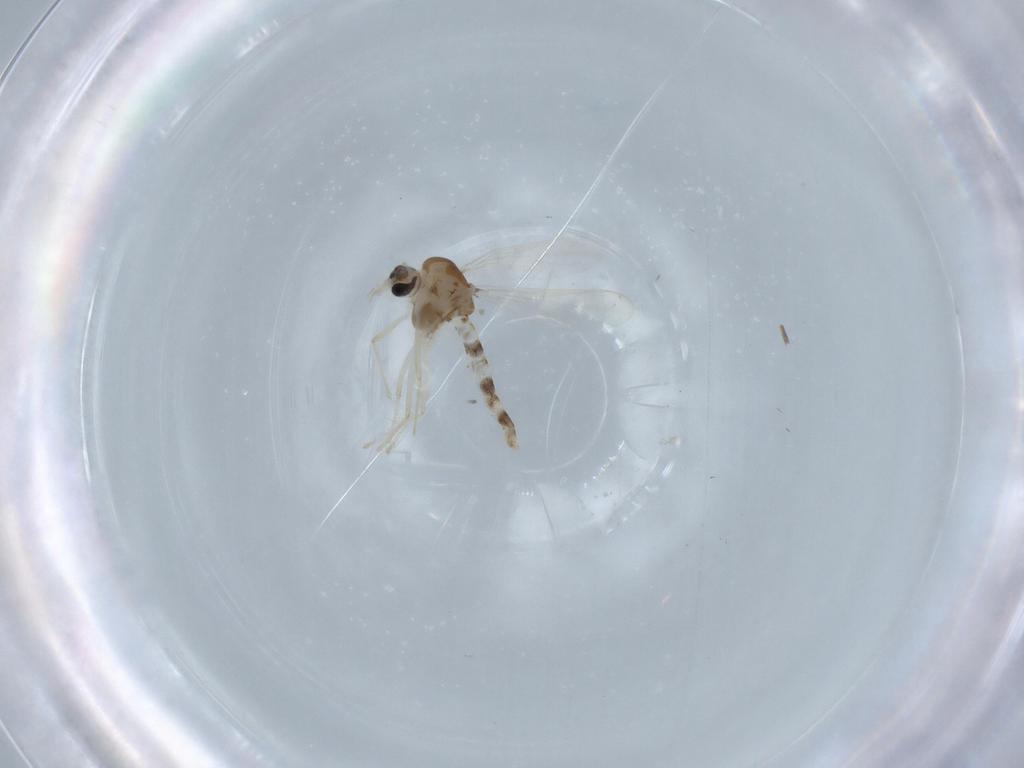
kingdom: Animalia
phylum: Arthropoda
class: Insecta
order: Diptera
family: Chironomidae
